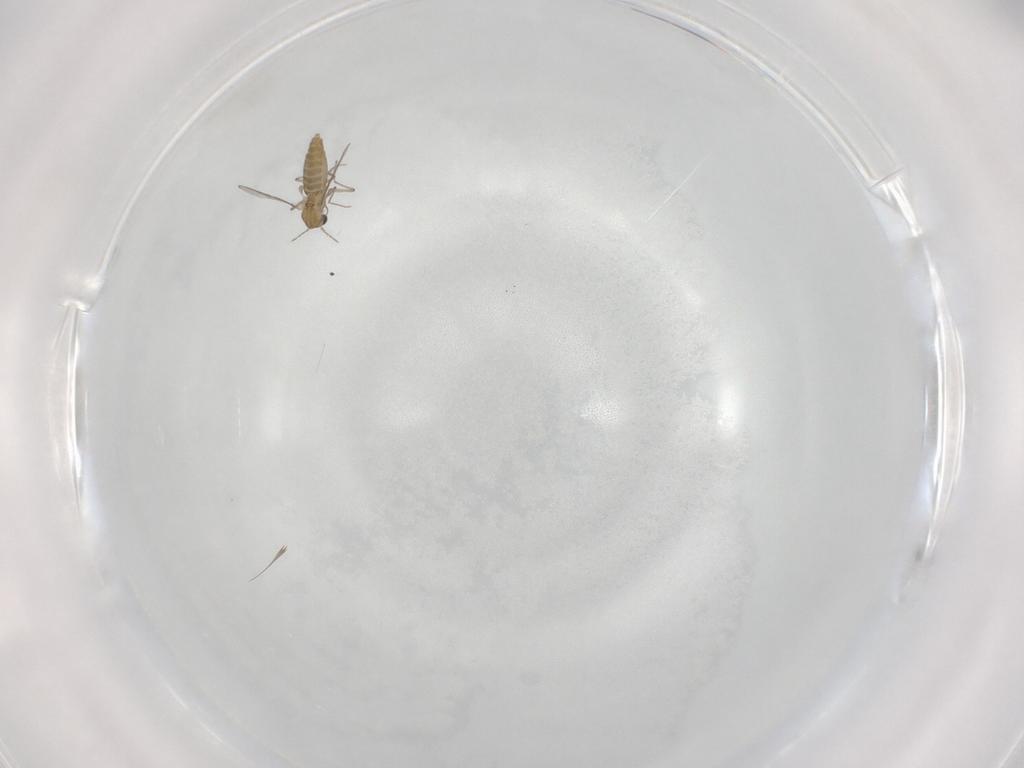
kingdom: Animalia
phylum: Arthropoda
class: Insecta
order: Diptera
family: Chironomidae
